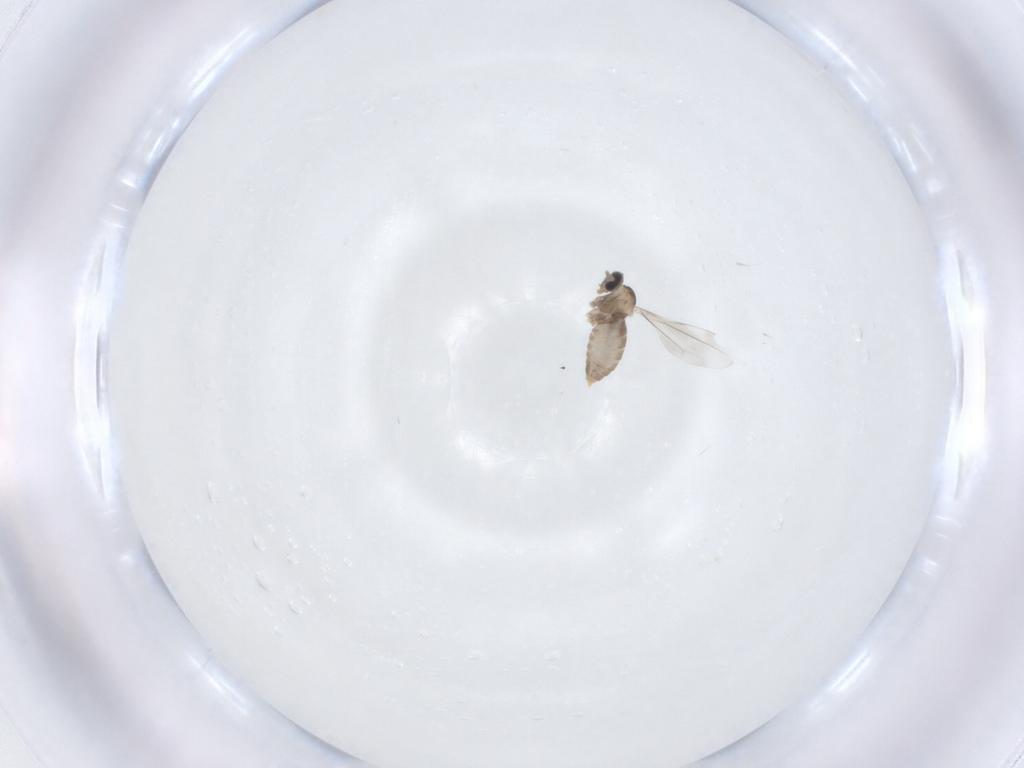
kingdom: Animalia
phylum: Arthropoda
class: Insecta
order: Diptera
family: Cecidomyiidae
